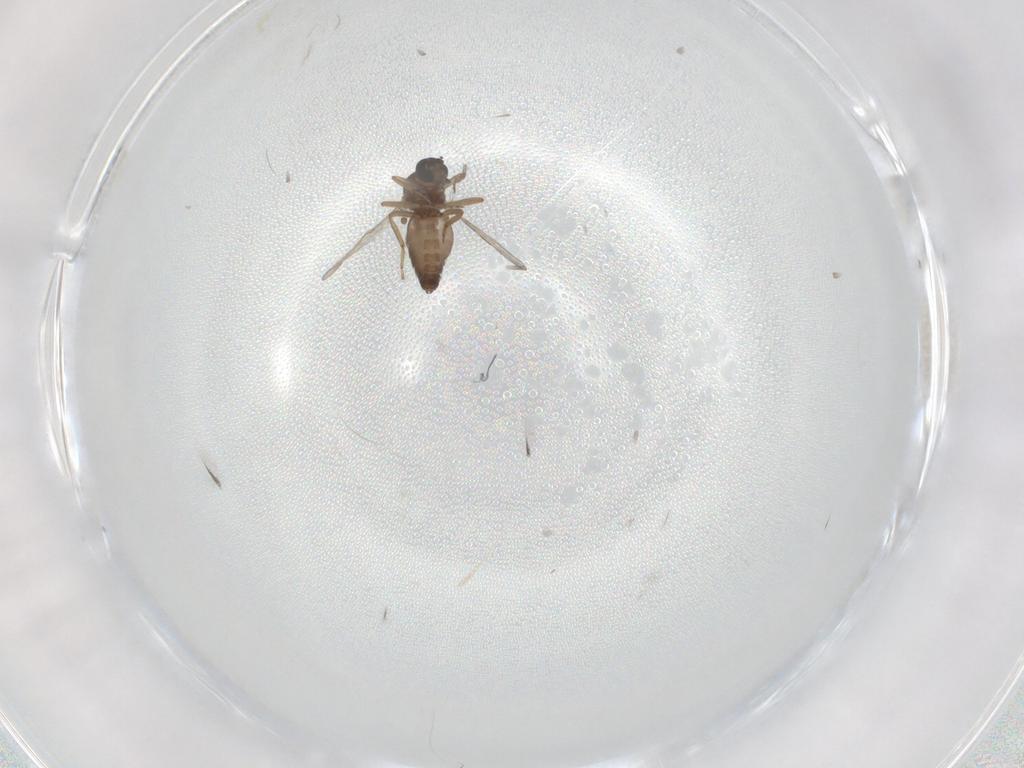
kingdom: Animalia
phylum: Arthropoda
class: Insecta
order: Diptera
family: Ceratopogonidae
